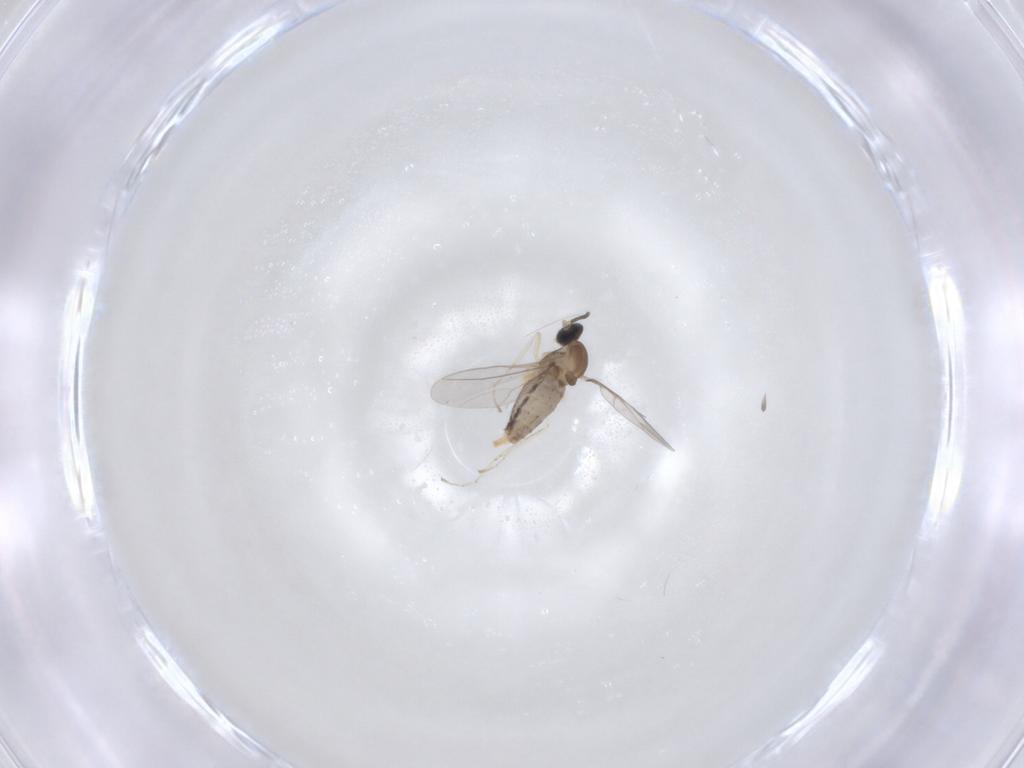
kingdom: Animalia
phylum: Arthropoda
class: Insecta
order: Diptera
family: Cecidomyiidae
